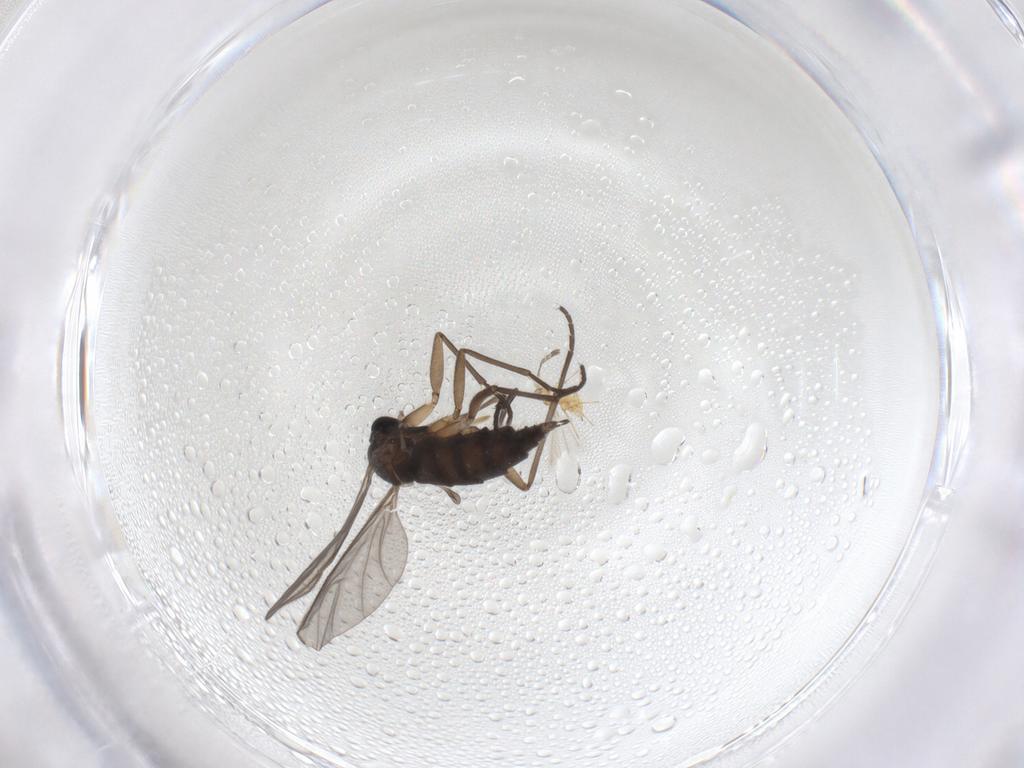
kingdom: Animalia
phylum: Arthropoda
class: Insecta
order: Diptera
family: Sciaridae
